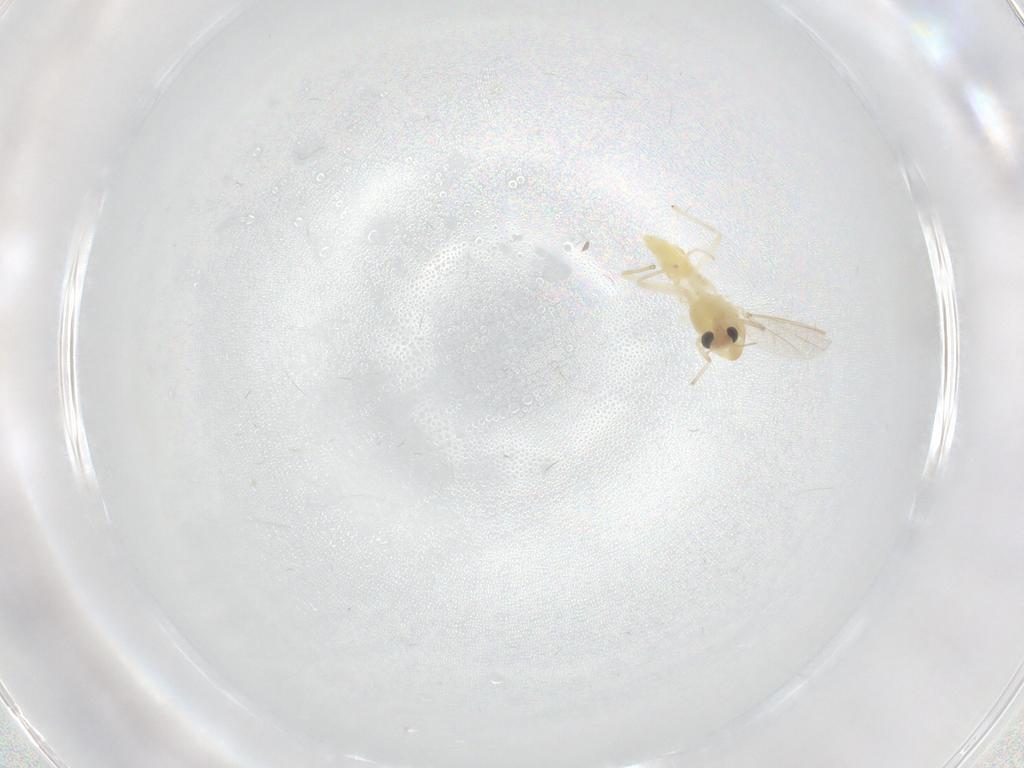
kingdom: Animalia
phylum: Arthropoda
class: Insecta
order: Diptera
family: Chironomidae
